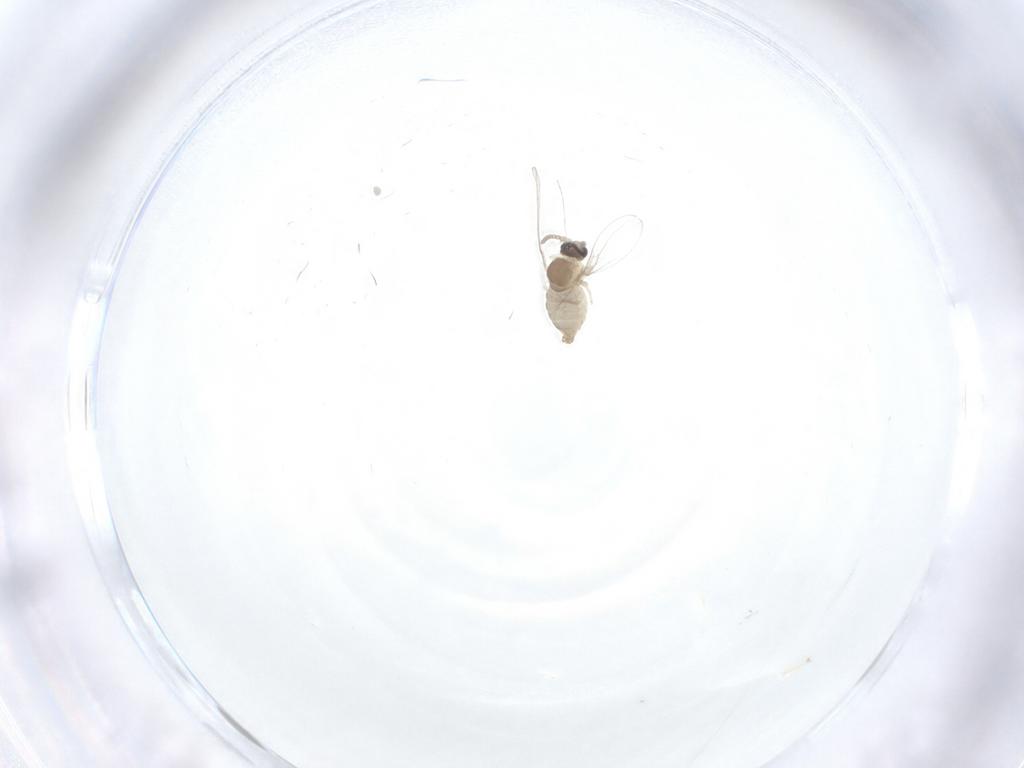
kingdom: Animalia
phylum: Arthropoda
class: Insecta
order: Diptera
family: Cecidomyiidae
